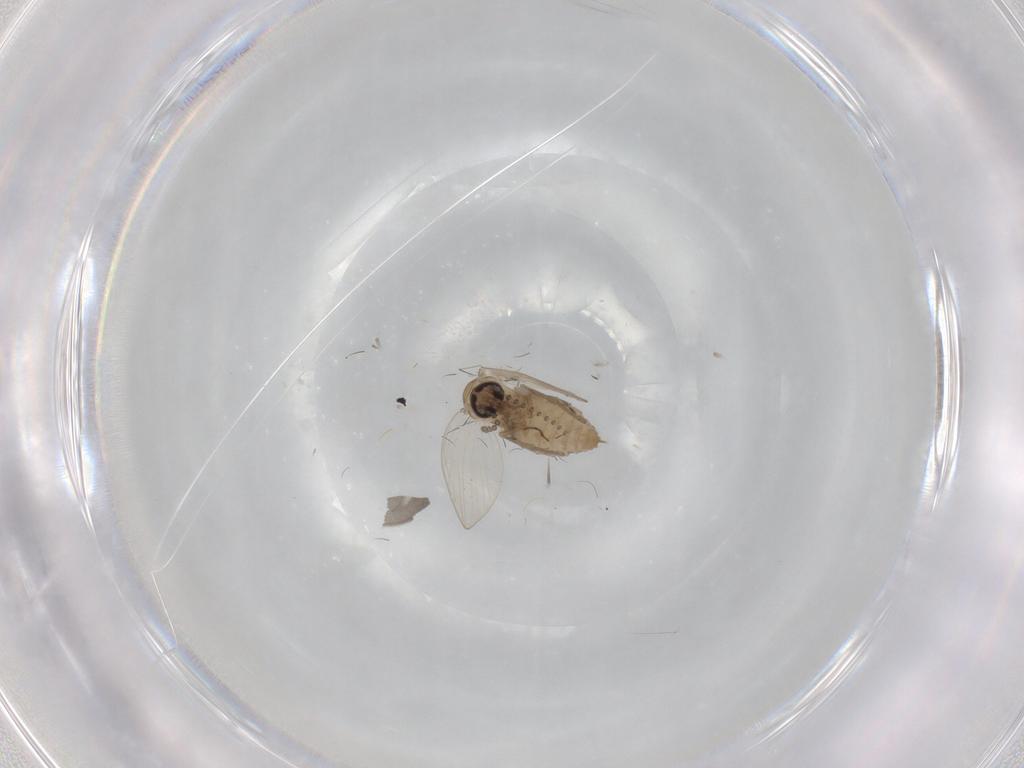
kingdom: Animalia
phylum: Arthropoda
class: Insecta
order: Diptera
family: Psychodidae
